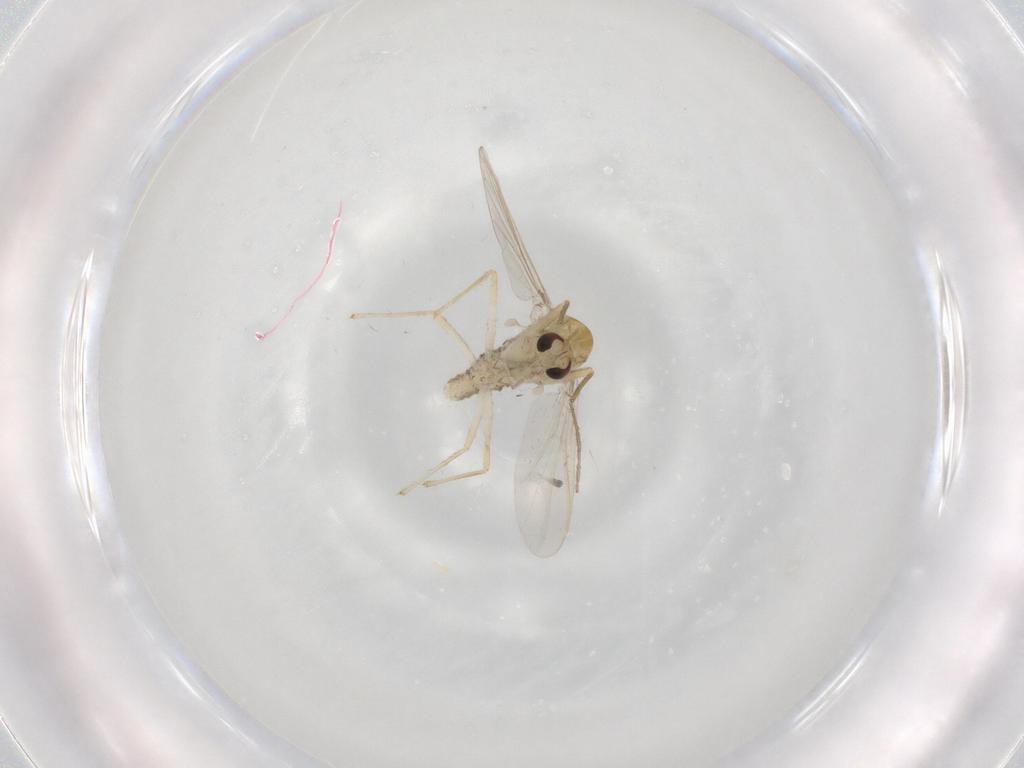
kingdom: Animalia
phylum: Arthropoda
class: Insecta
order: Diptera
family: Chironomidae
